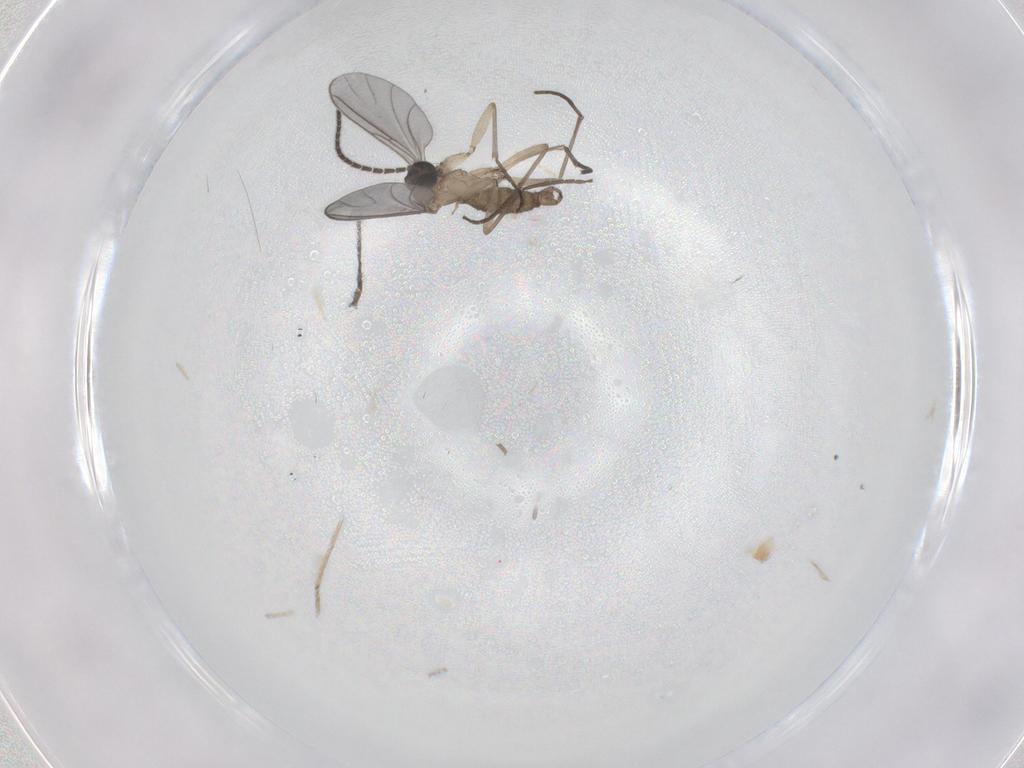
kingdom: Animalia
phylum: Arthropoda
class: Insecta
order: Diptera
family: Sciaridae
